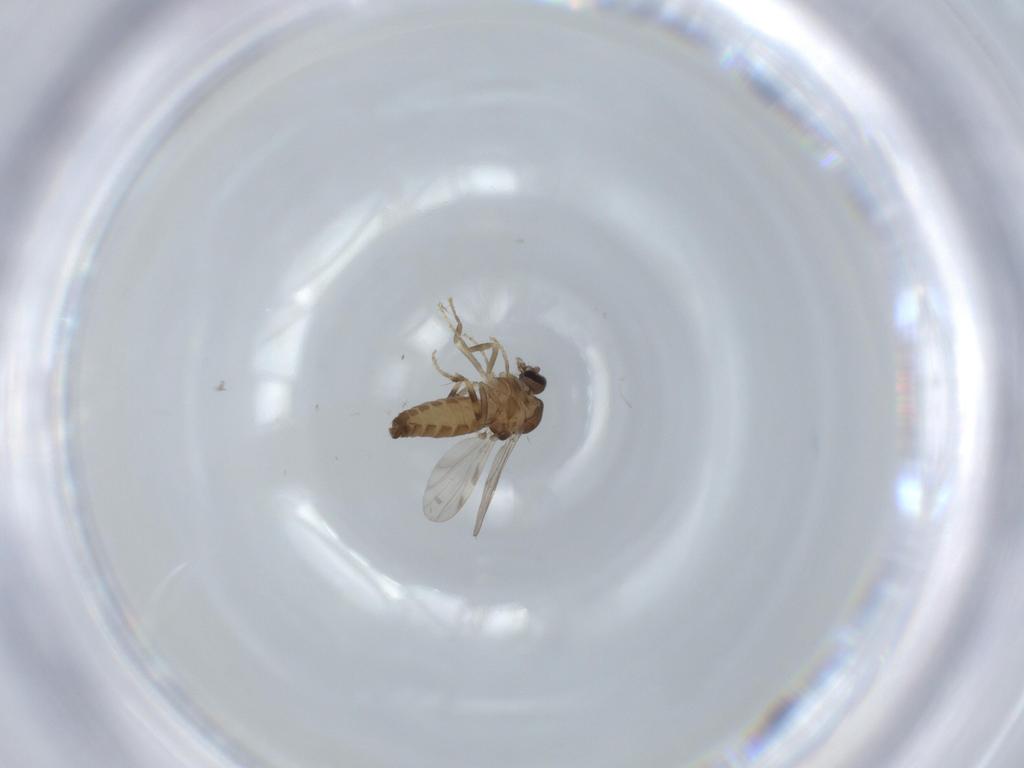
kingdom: Animalia
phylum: Arthropoda
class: Insecta
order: Diptera
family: Ceratopogonidae
